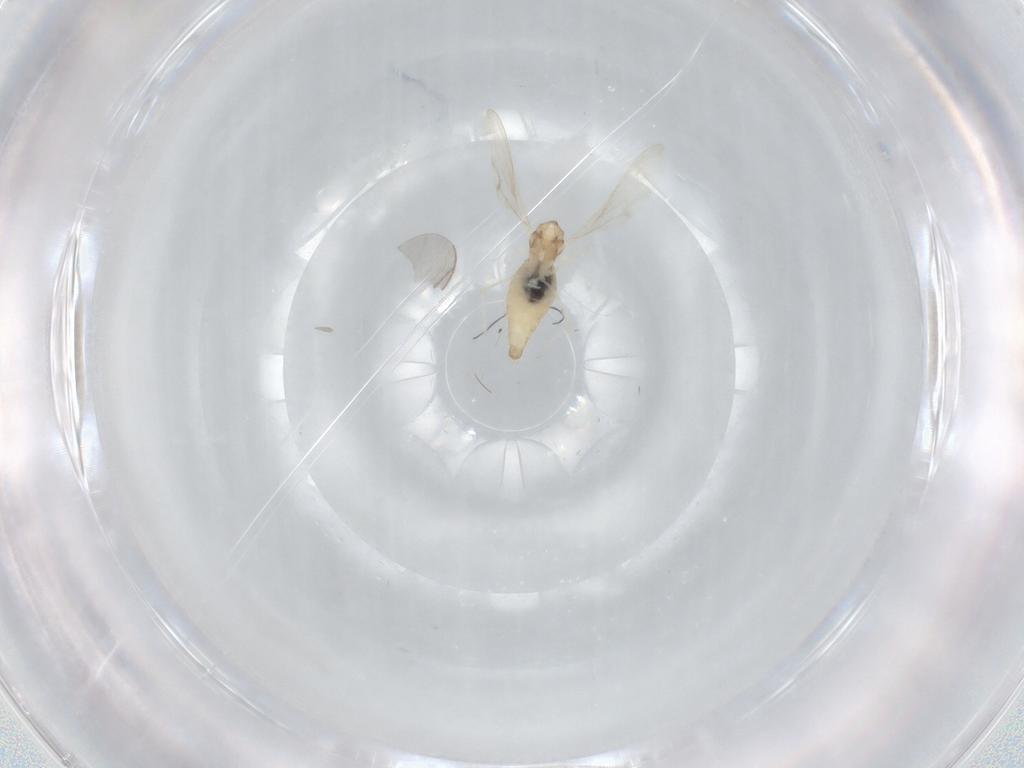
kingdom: Animalia
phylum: Arthropoda
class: Insecta
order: Diptera
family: Cecidomyiidae
